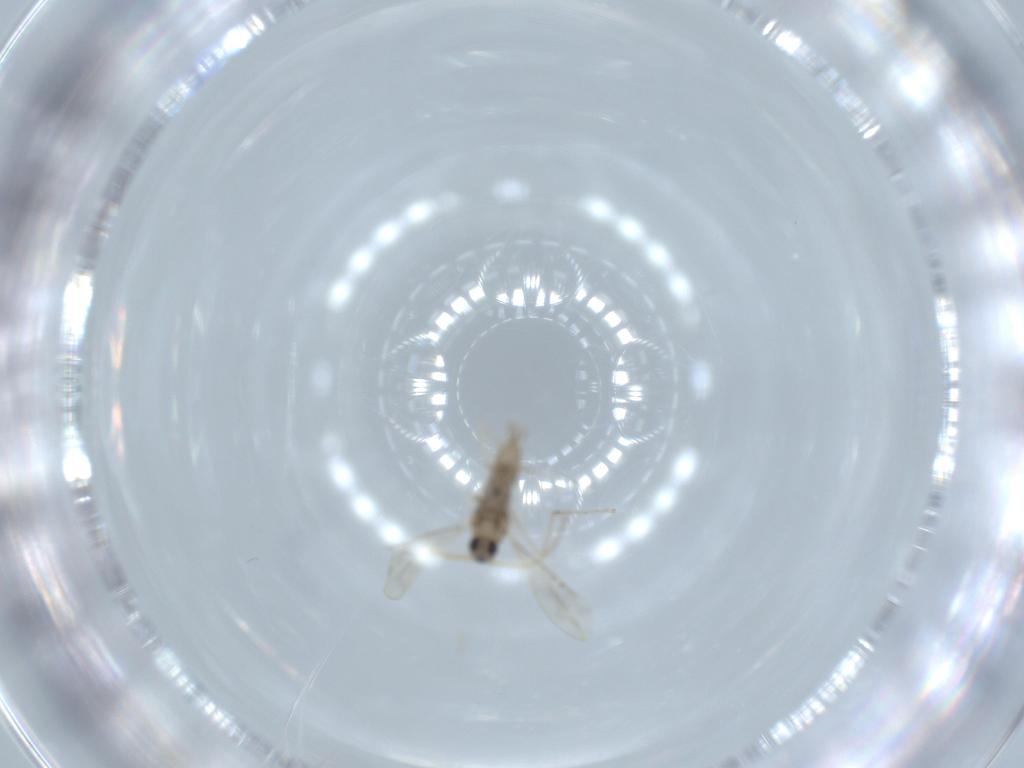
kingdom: Animalia
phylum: Arthropoda
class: Insecta
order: Diptera
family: Cecidomyiidae
